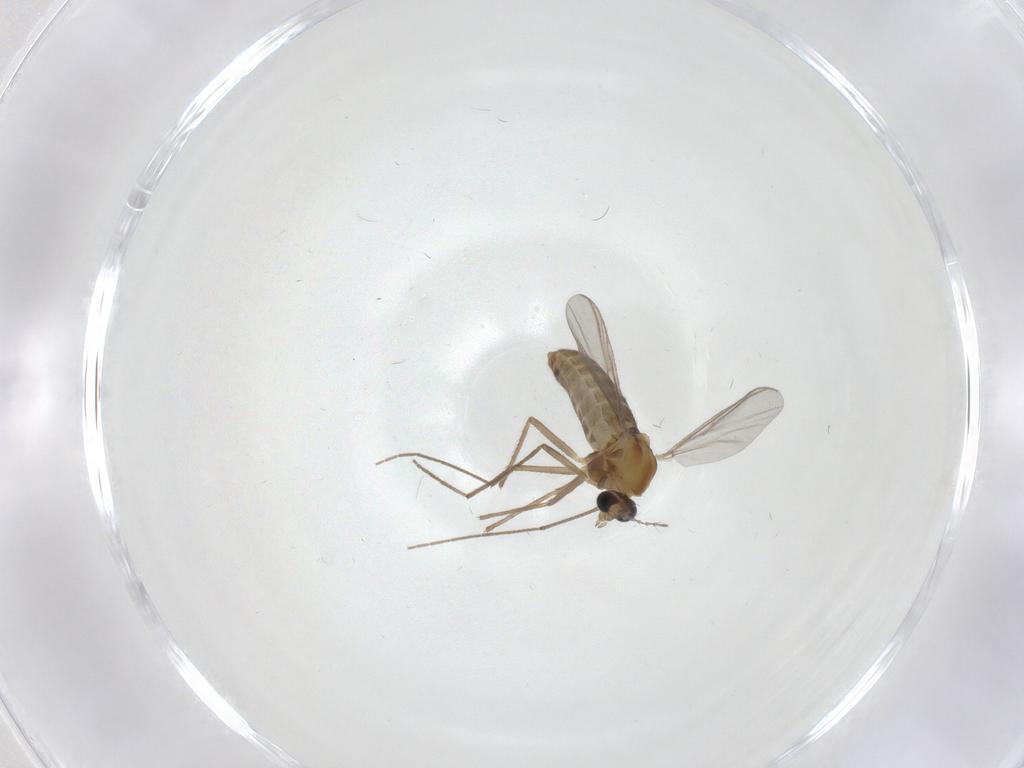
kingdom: Animalia
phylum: Arthropoda
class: Insecta
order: Diptera
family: Chironomidae
